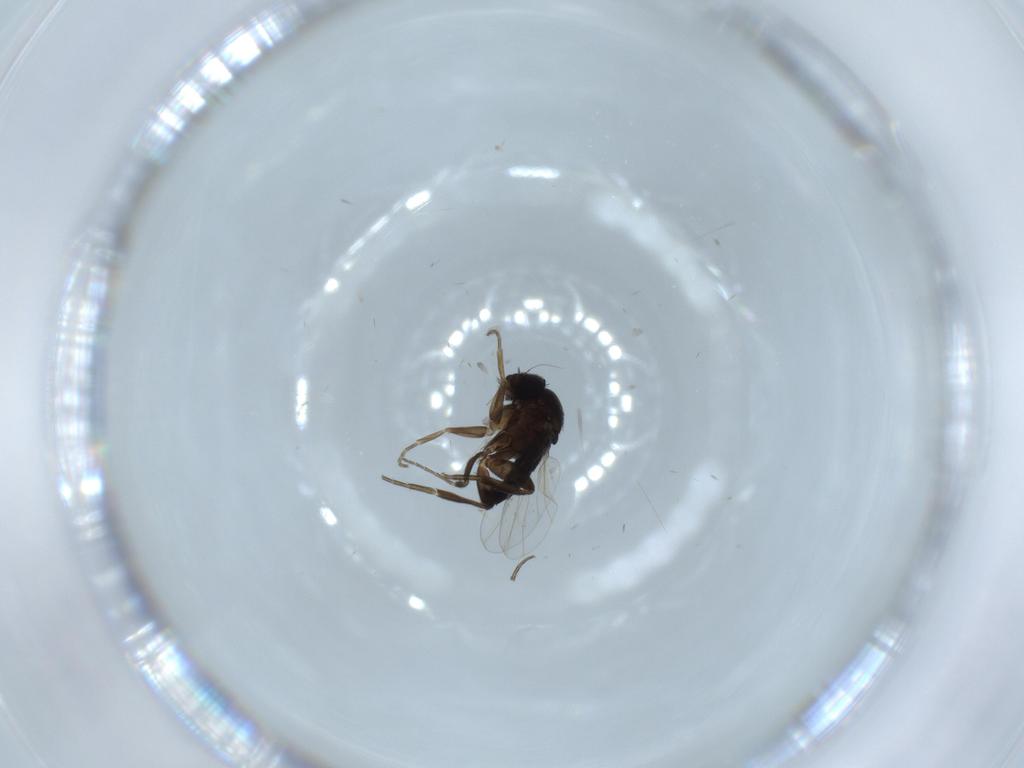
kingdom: Animalia
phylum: Arthropoda
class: Insecta
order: Diptera
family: Phoridae
